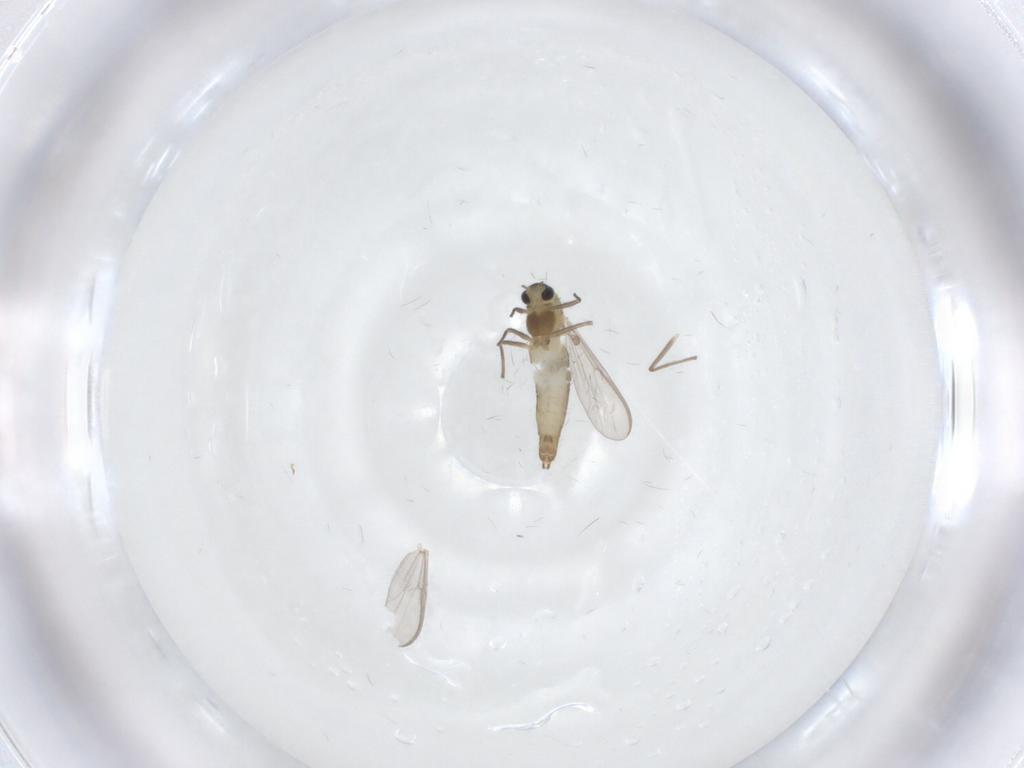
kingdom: Animalia
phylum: Arthropoda
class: Insecta
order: Diptera
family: Chironomidae
